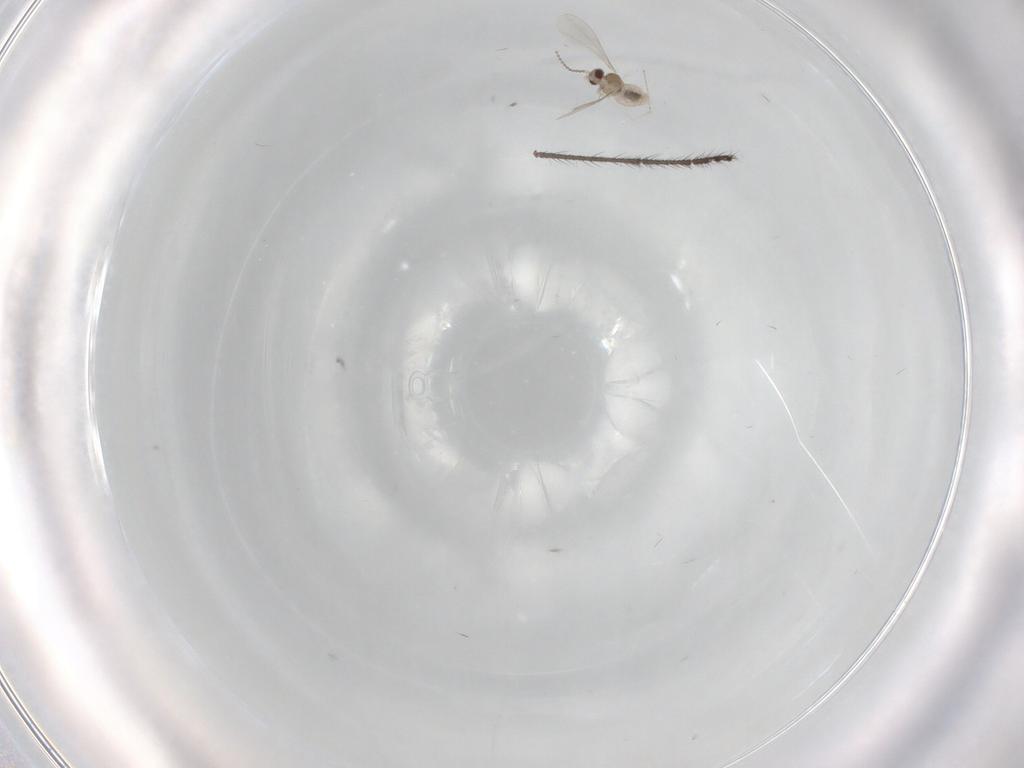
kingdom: Animalia
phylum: Arthropoda
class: Insecta
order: Diptera
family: Cecidomyiidae
